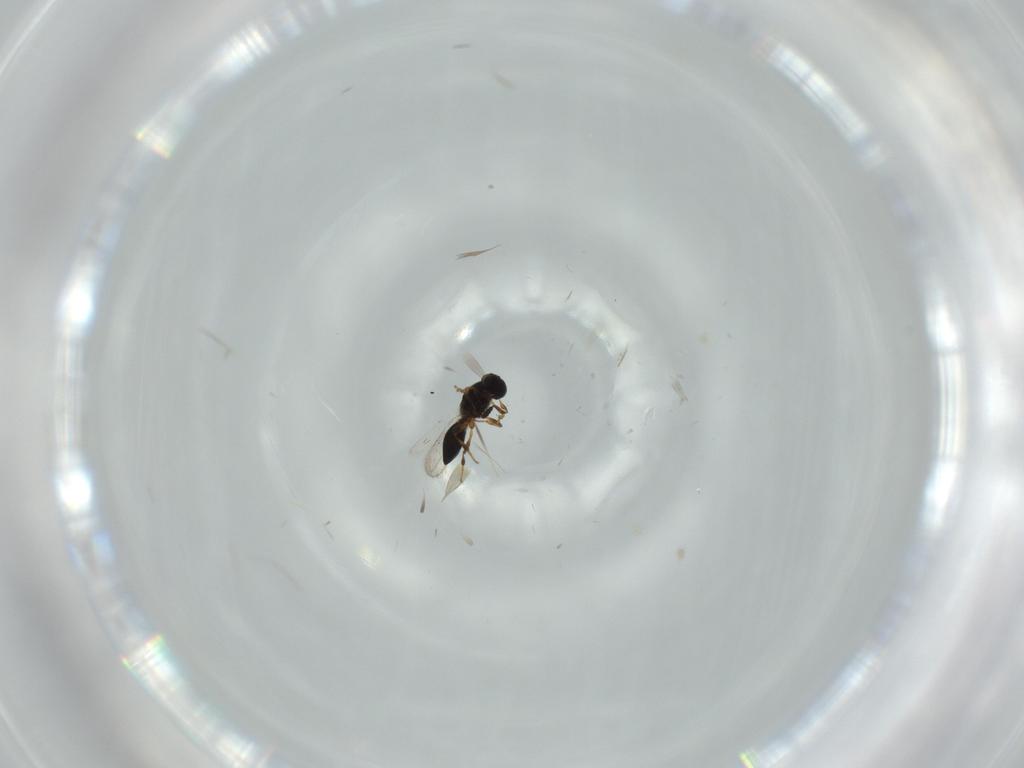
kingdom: Animalia
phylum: Arthropoda
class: Insecta
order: Hymenoptera
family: Platygastridae
